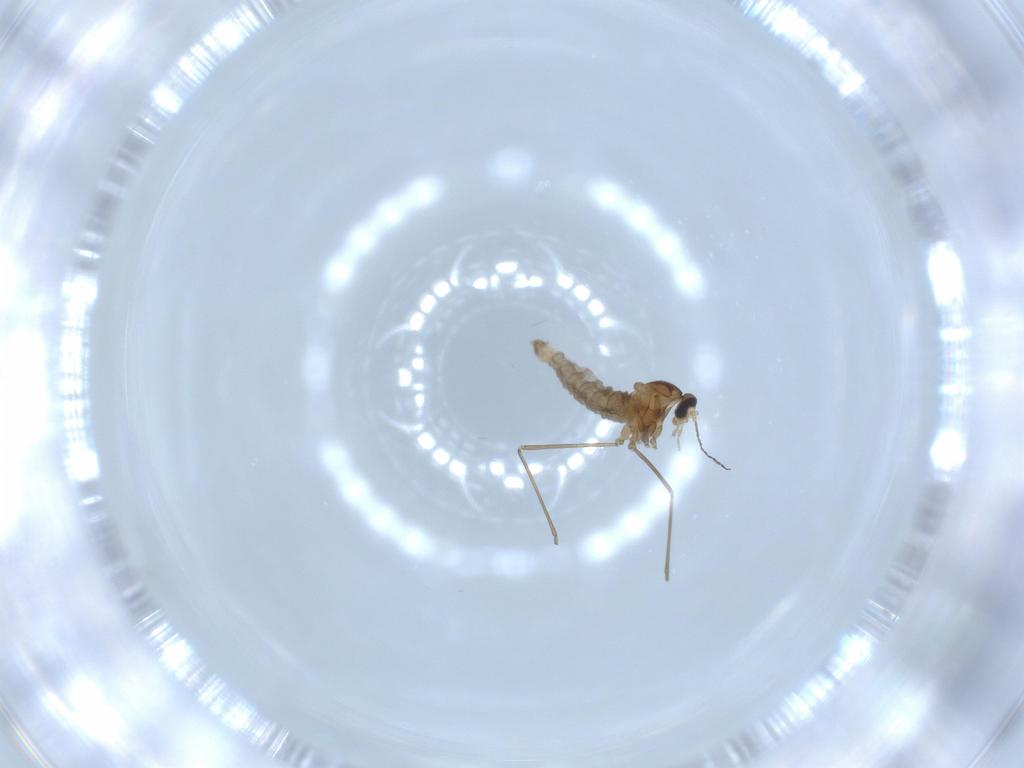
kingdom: Animalia
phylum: Arthropoda
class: Insecta
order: Diptera
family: Cecidomyiidae
